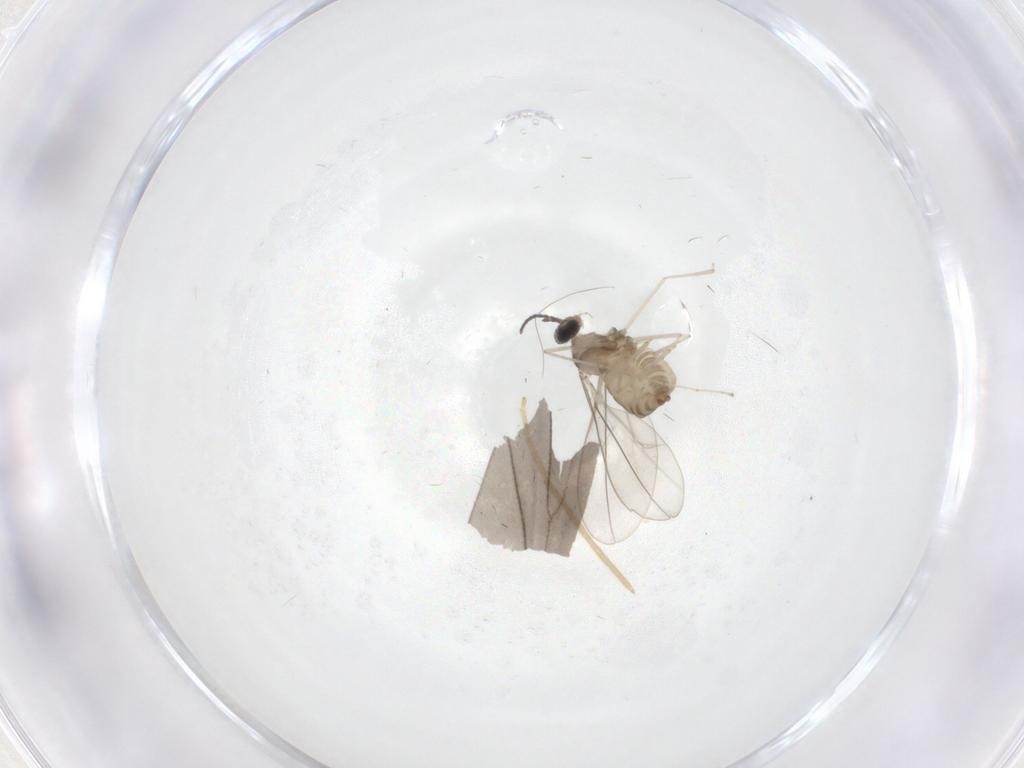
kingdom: Animalia
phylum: Arthropoda
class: Insecta
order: Diptera
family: Cecidomyiidae
